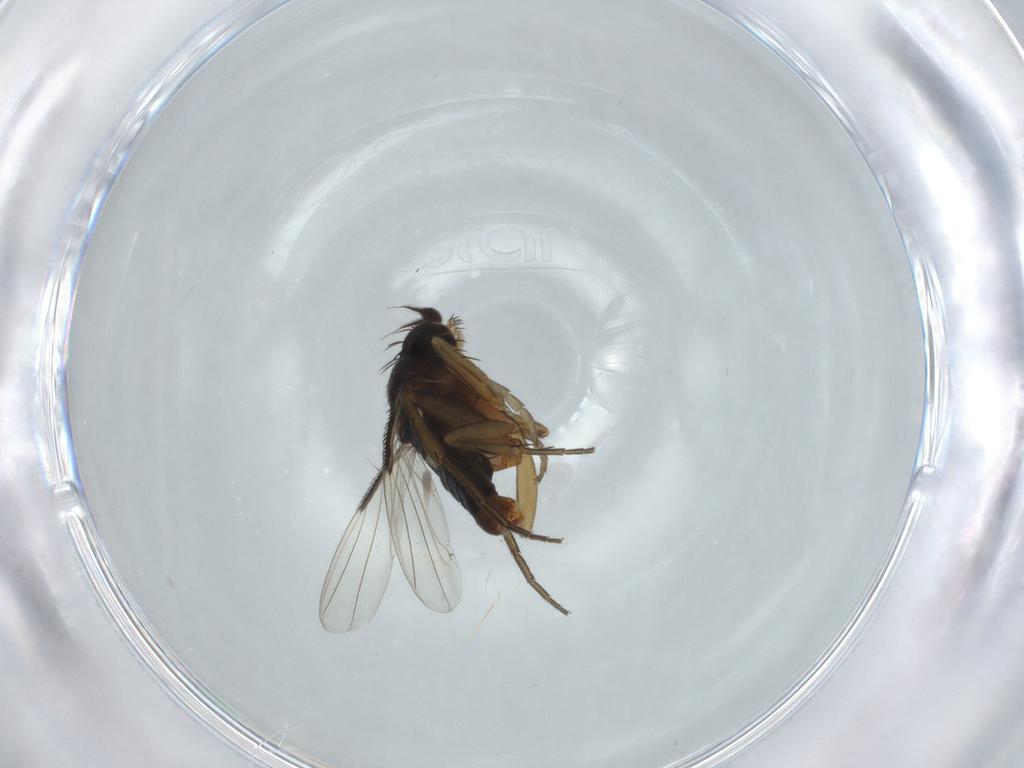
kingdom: Animalia
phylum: Arthropoda
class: Insecta
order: Diptera
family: Phoridae
